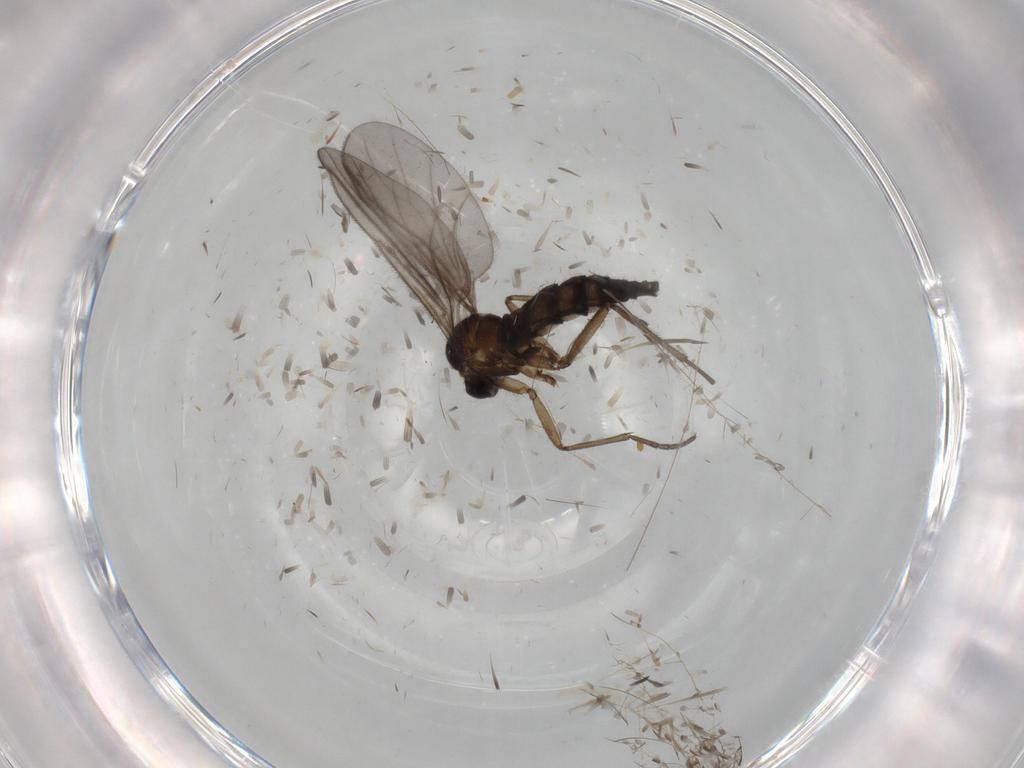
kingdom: Animalia
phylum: Arthropoda
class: Insecta
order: Diptera
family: Sciaridae
